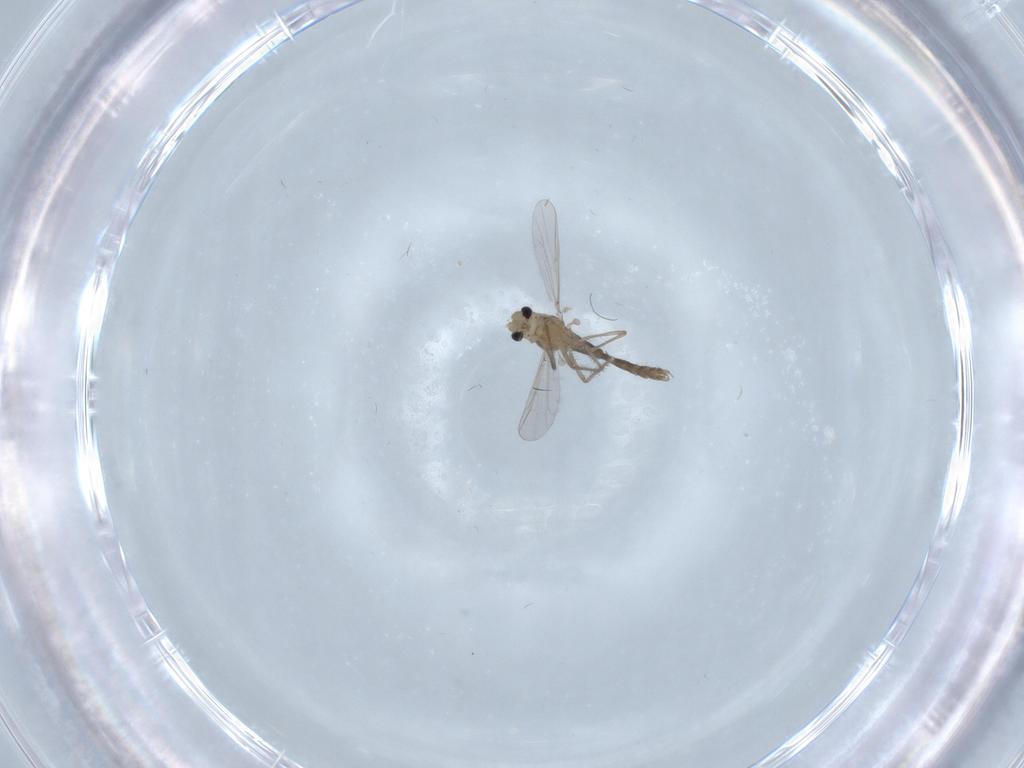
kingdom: Animalia
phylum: Arthropoda
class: Insecta
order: Diptera
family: Chironomidae
